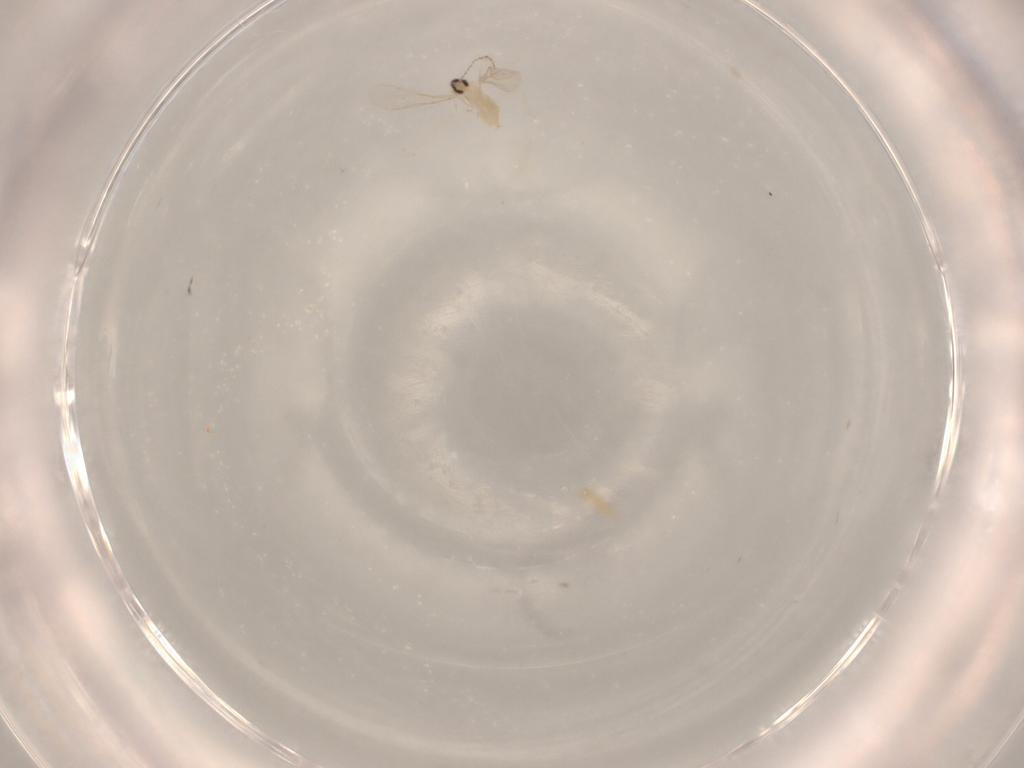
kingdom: Animalia
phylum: Arthropoda
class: Insecta
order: Diptera
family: Cecidomyiidae
